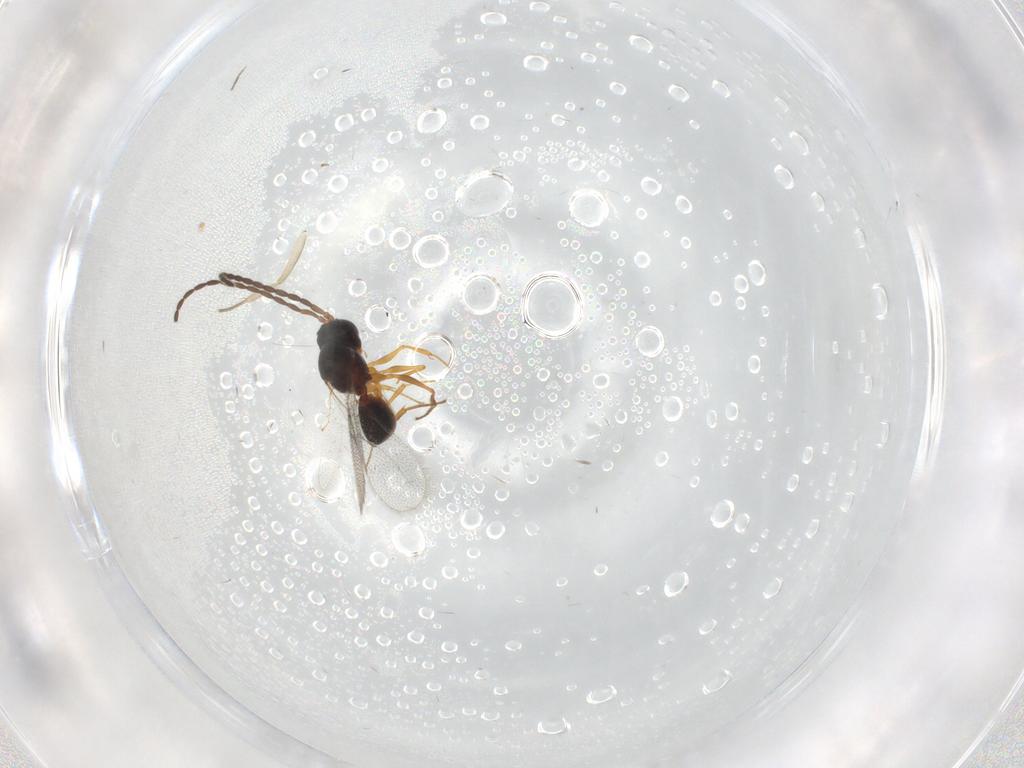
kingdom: Animalia
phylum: Arthropoda
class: Insecta
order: Hymenoptera
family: Figitidae
